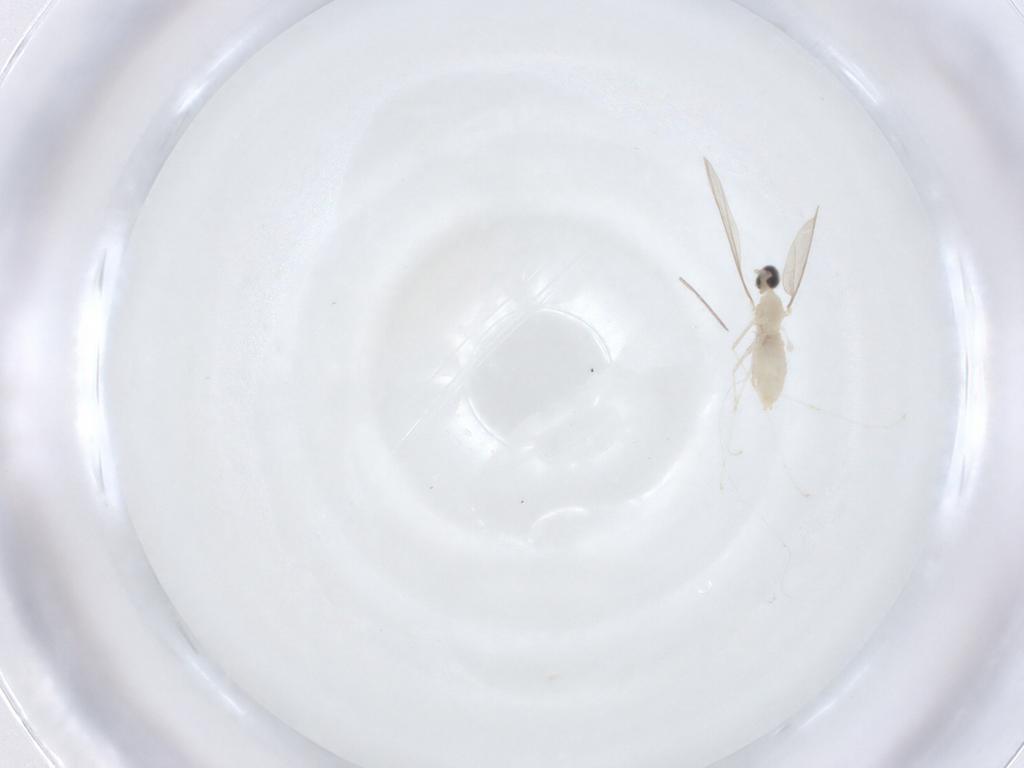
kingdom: Animalia
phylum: Arthropoda
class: Insecta
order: Diptera
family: Cecidomyiidae
